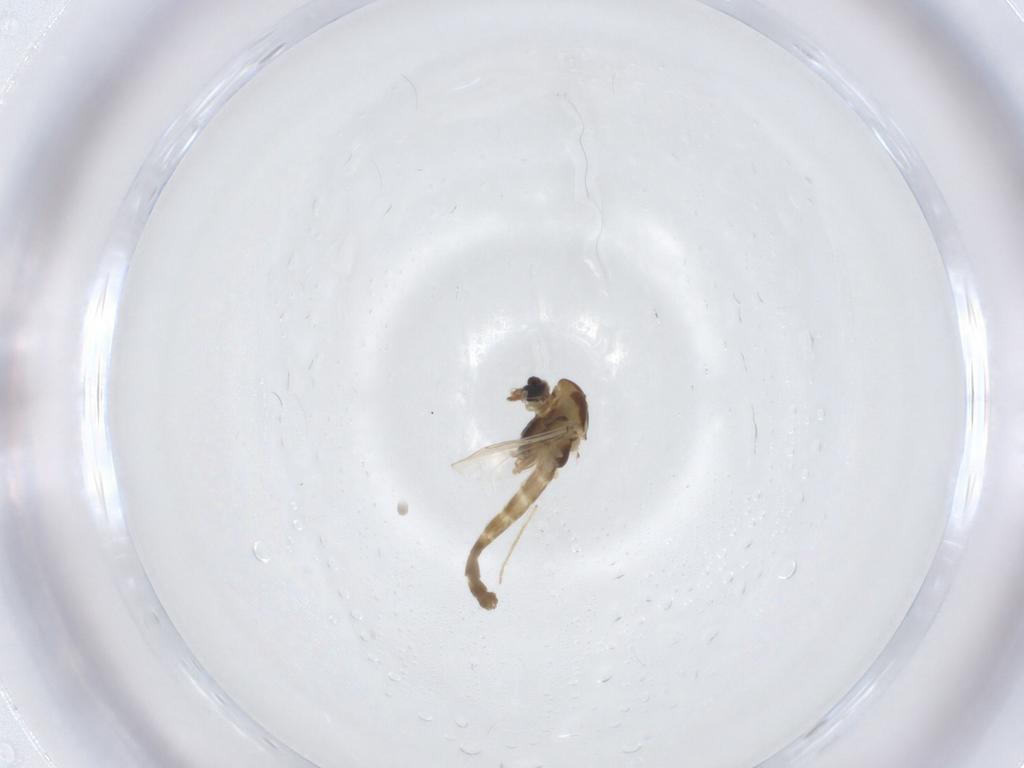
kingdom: Animalia
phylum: Arthropoda
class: Insecta
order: Diptera
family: Chironomidae
